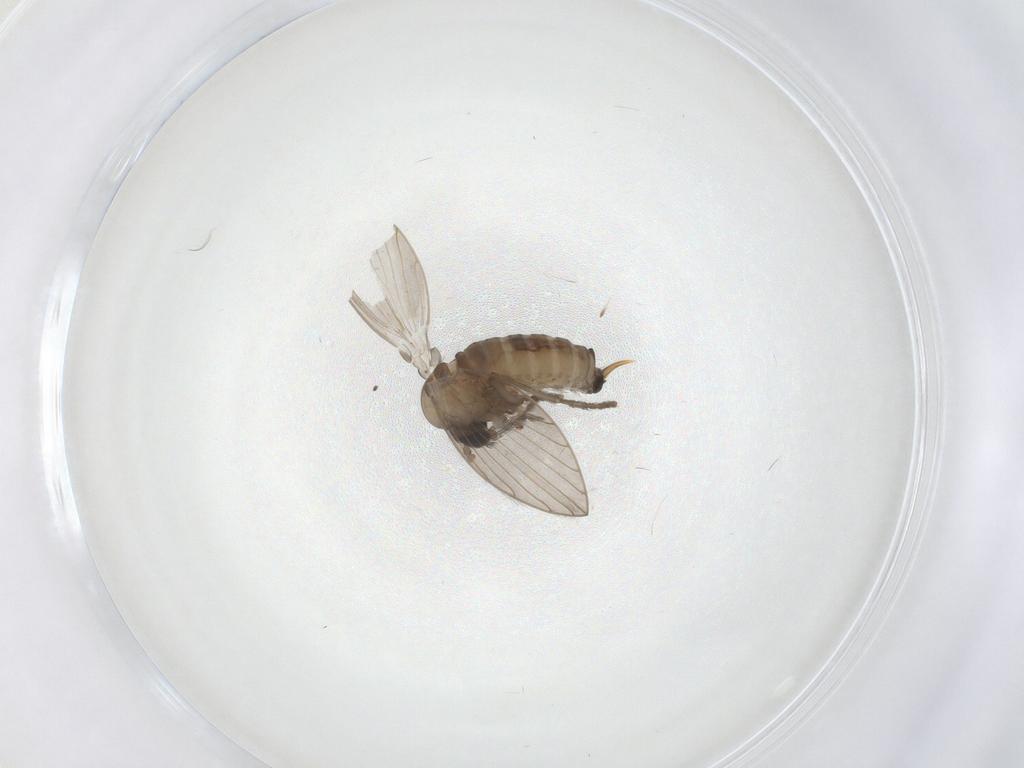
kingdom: Animalia
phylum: Arthropoda
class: Insecta
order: Diptera
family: Psychodidae
